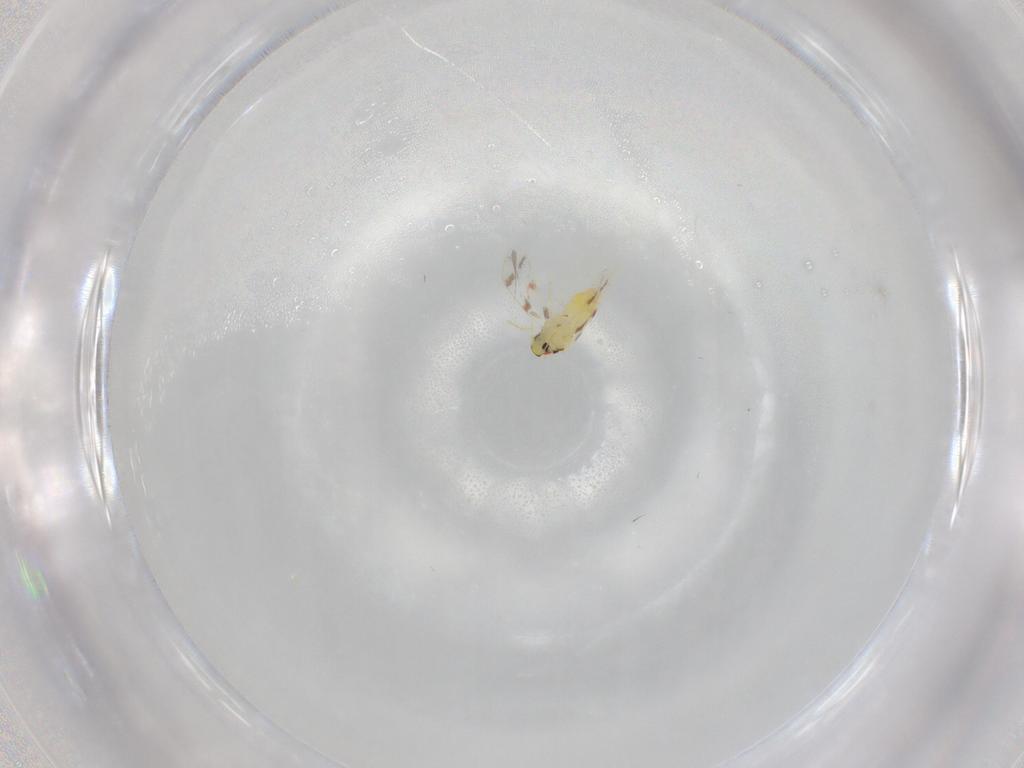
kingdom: Animalia
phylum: Arthropoda
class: Insecta
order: Hemiptera
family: Aleyrodidae
